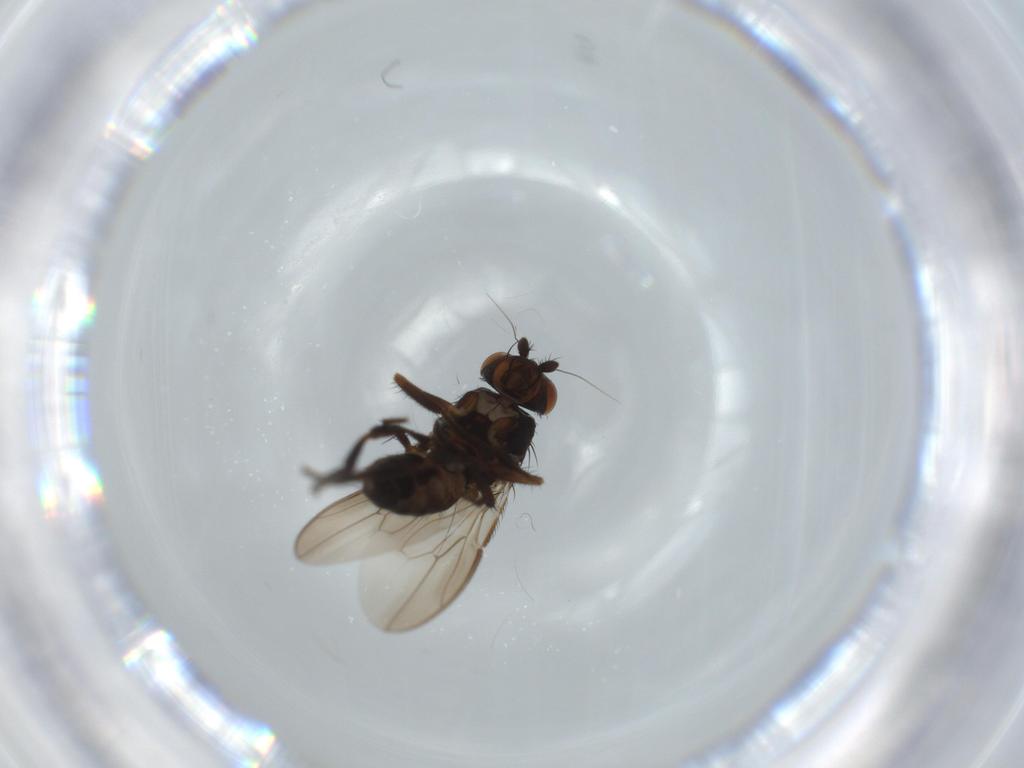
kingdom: Animalia
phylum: Arthropoda
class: Insecta
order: Diptera
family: Sphaeroceridae
